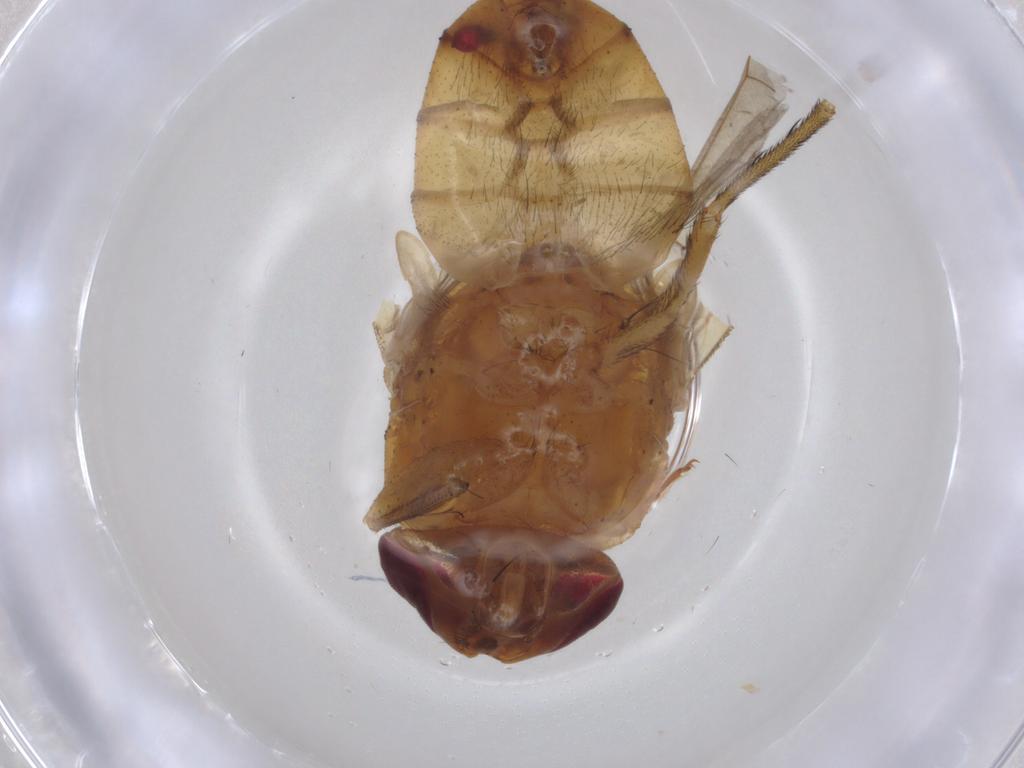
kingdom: Animalia
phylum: Arthropoda
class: Insecta
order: Diptera
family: Calliphoridae
